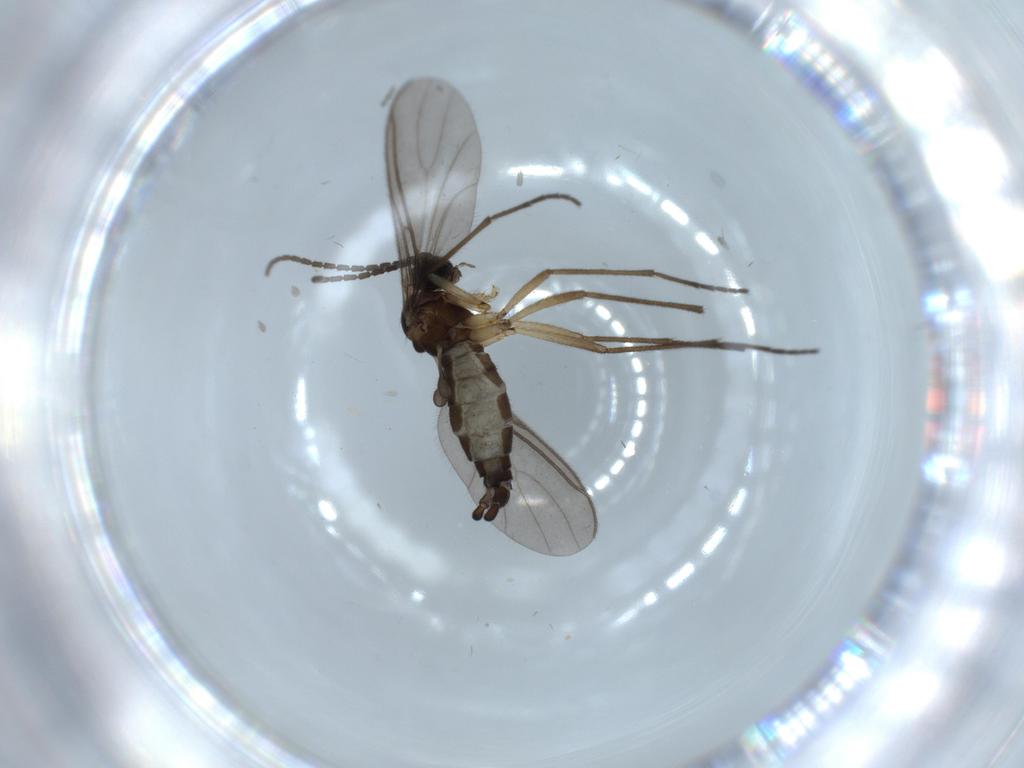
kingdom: Animalia
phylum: Arthropoda
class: Insecta
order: Diptera
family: Sciaridae
